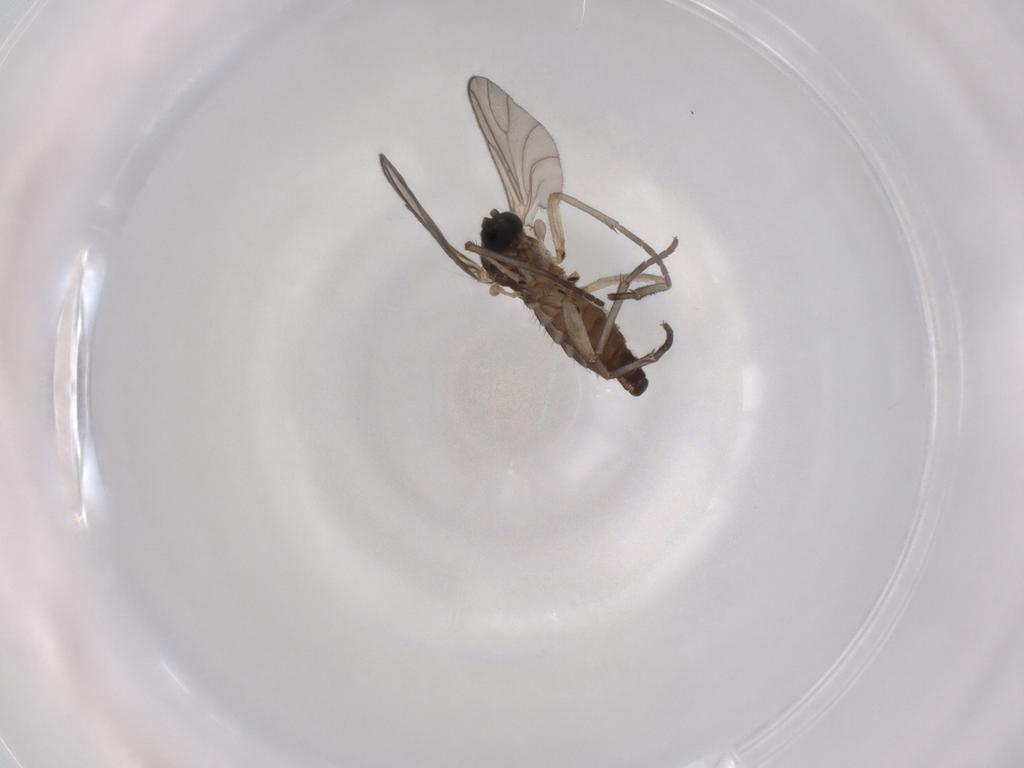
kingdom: Animalia
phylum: Arthropoda
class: Insecta
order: Diptera
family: Sciaridae
